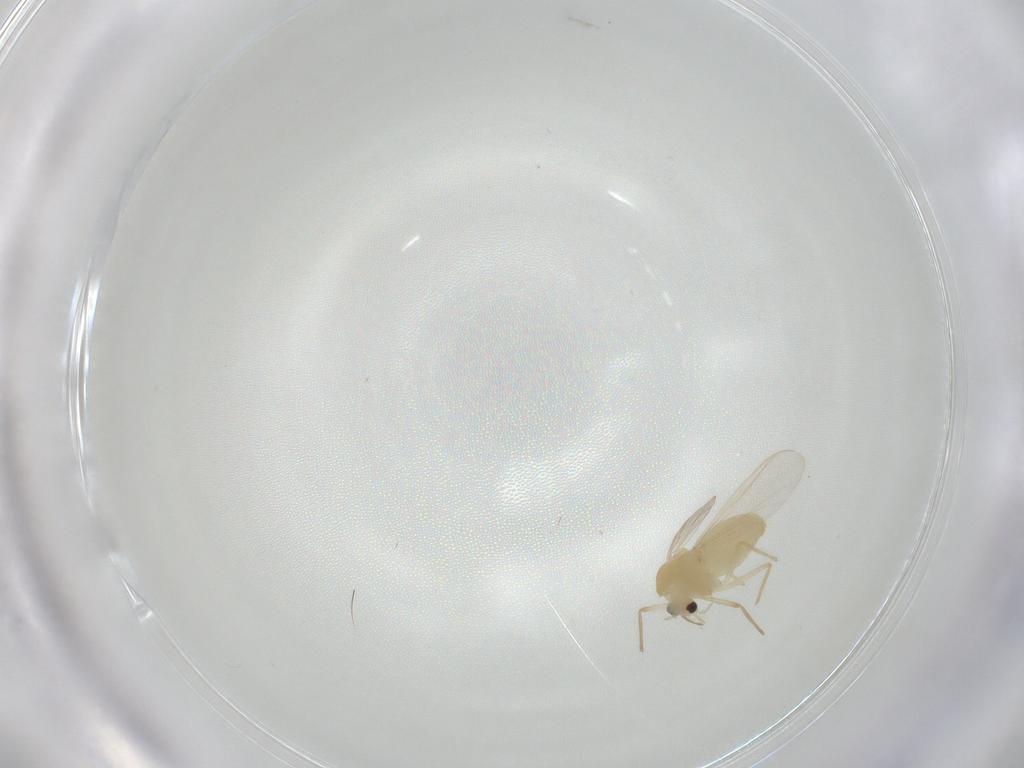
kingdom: Animalia
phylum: Arthropoda
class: Insecta
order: Diptera
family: Chironomidae
